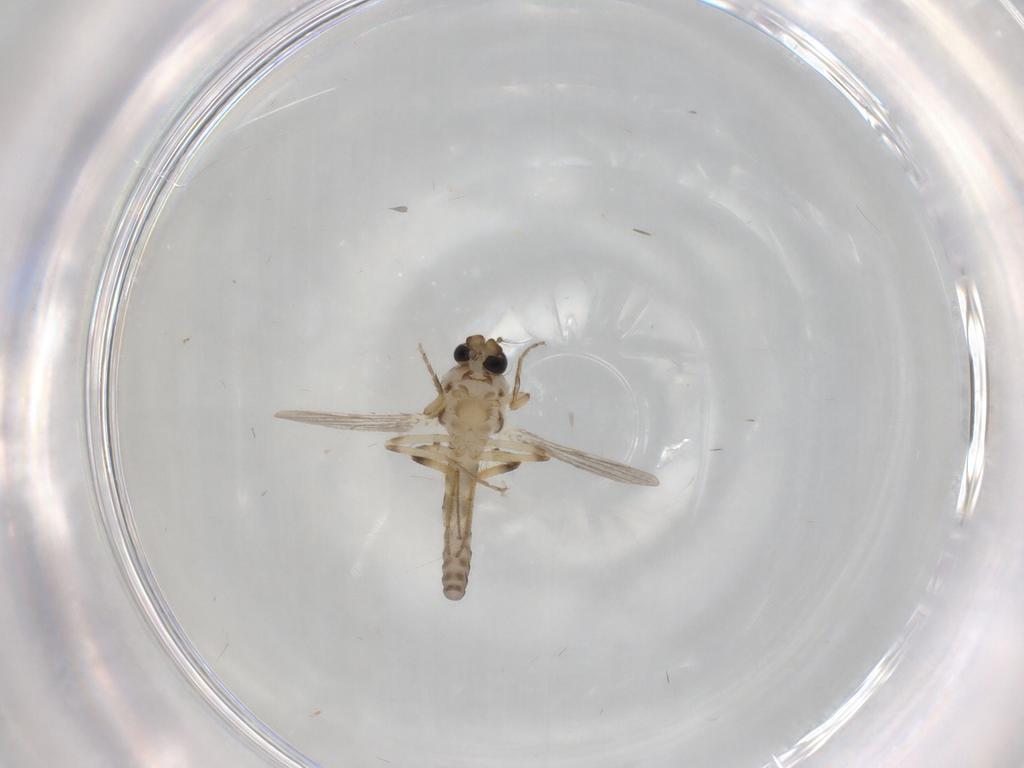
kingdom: Animalia
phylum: Arthropoda
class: Insecta
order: Diptera
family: Ceratopogonidae
